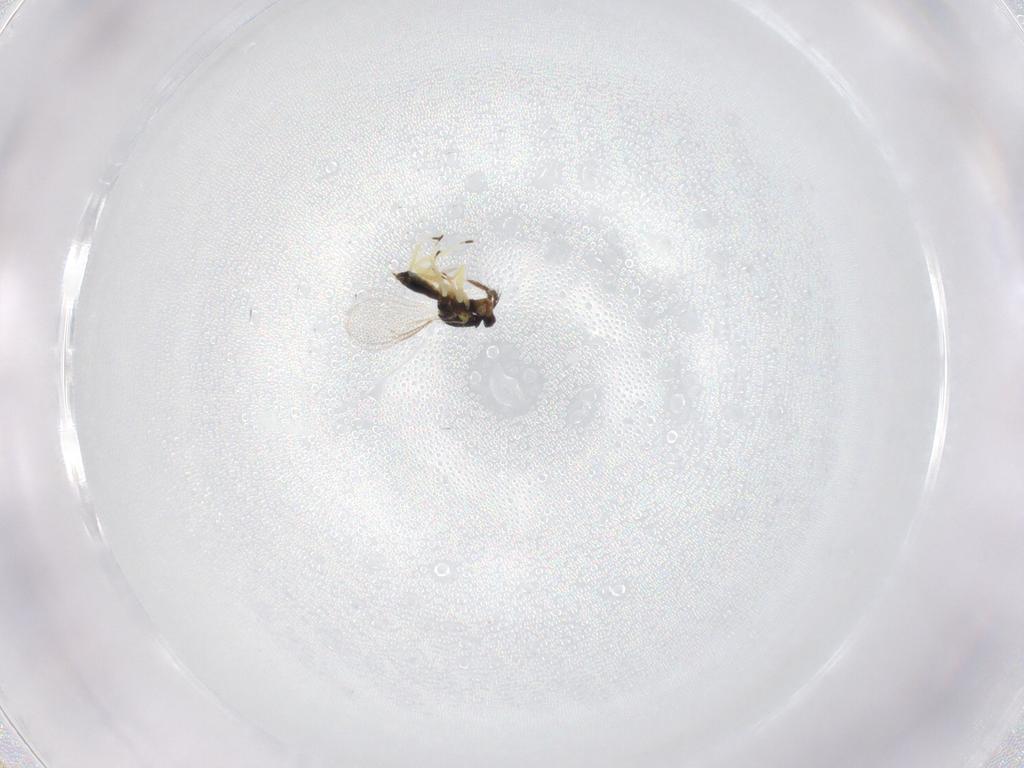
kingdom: Animalia
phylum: Arthropoda
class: Insecta
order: Hymenoptera
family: Eulophidae
